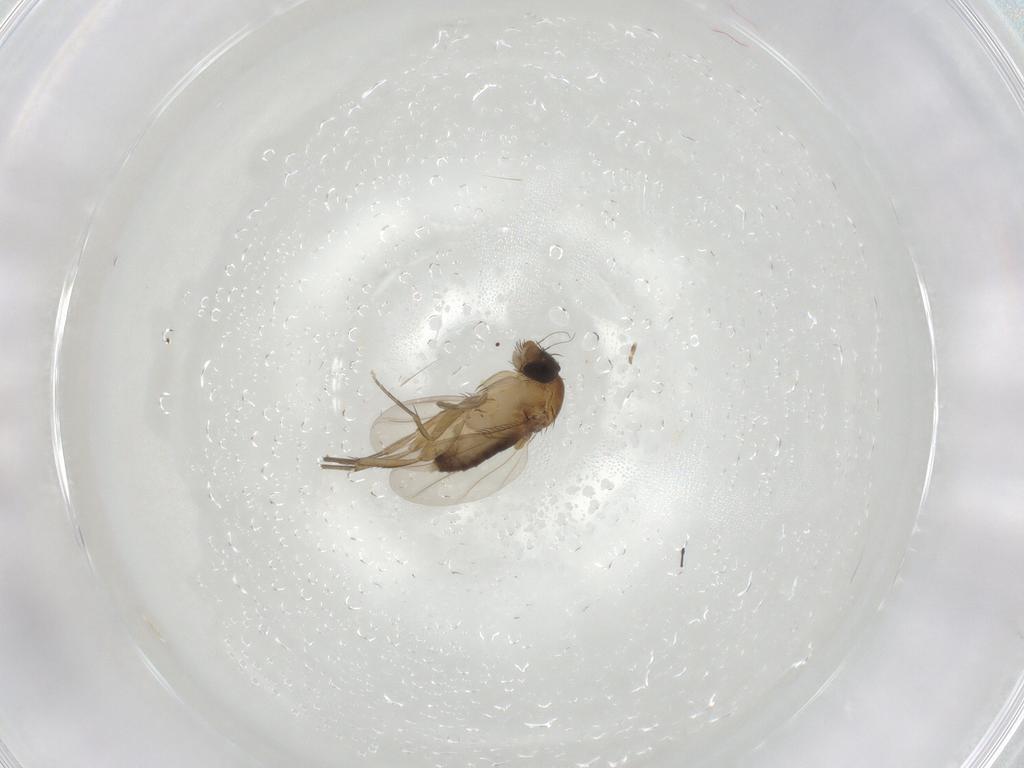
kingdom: Animalia
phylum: Arthropoda
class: Insecta
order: Diptera
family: Phoridae
